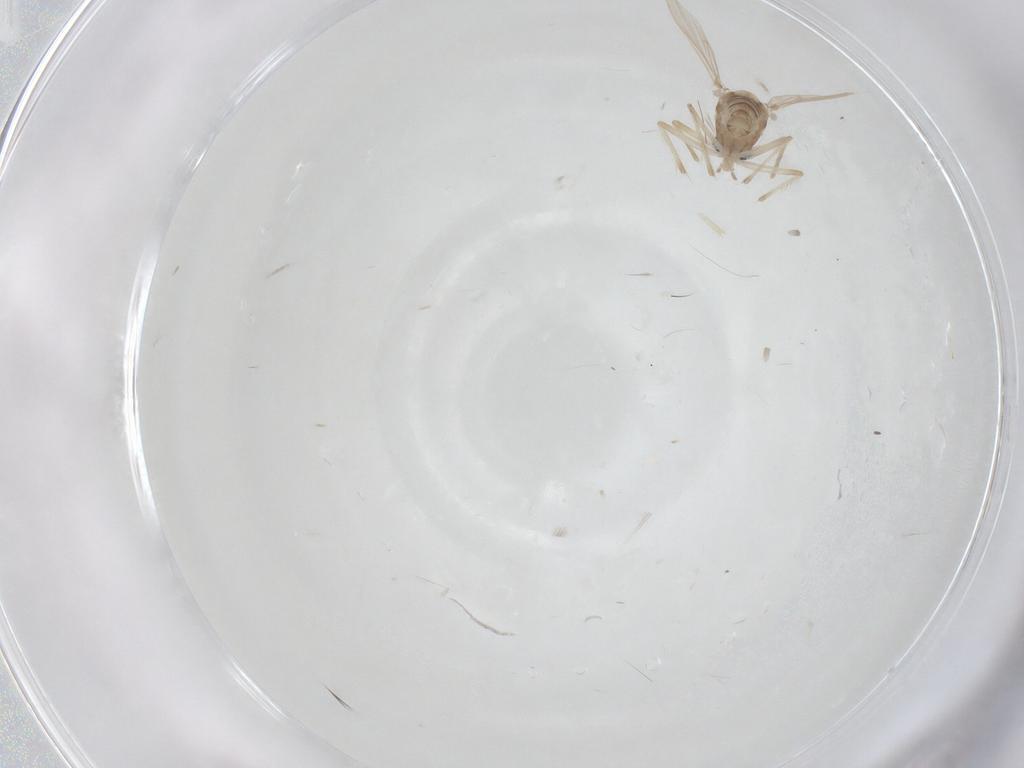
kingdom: Animalia
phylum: Arthropoda
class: Insecta
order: Diptera
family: Chironomidae
